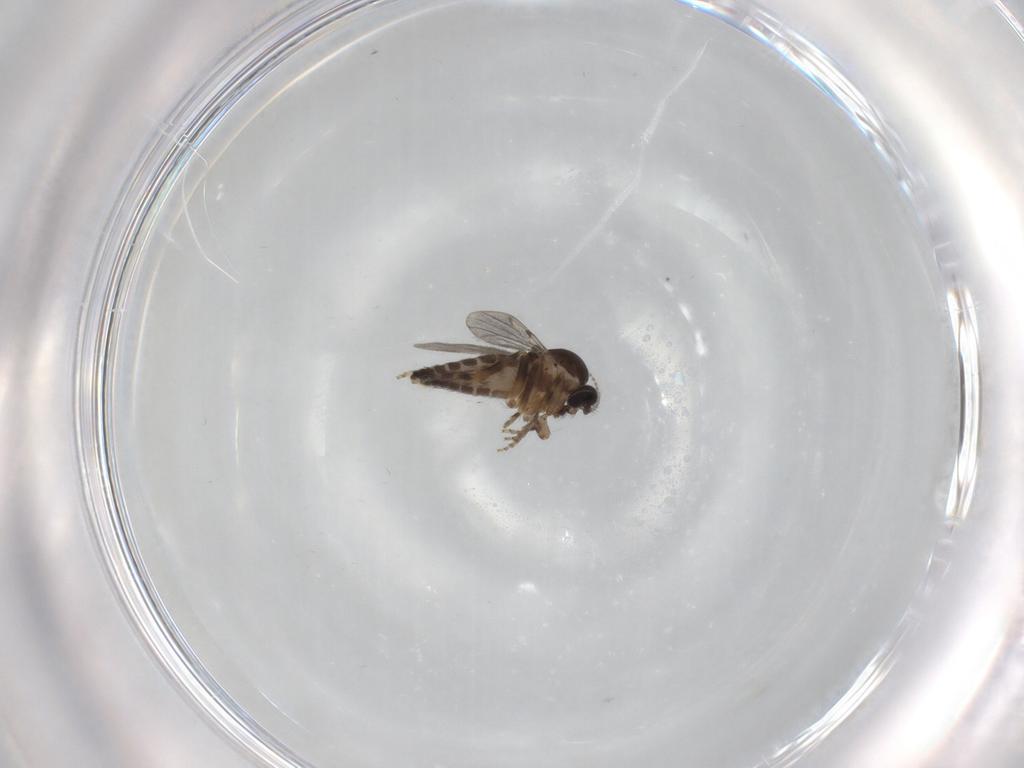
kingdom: Animalia
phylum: Arthropoda
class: Insecta
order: Diptera
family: Ceratopogonidae
